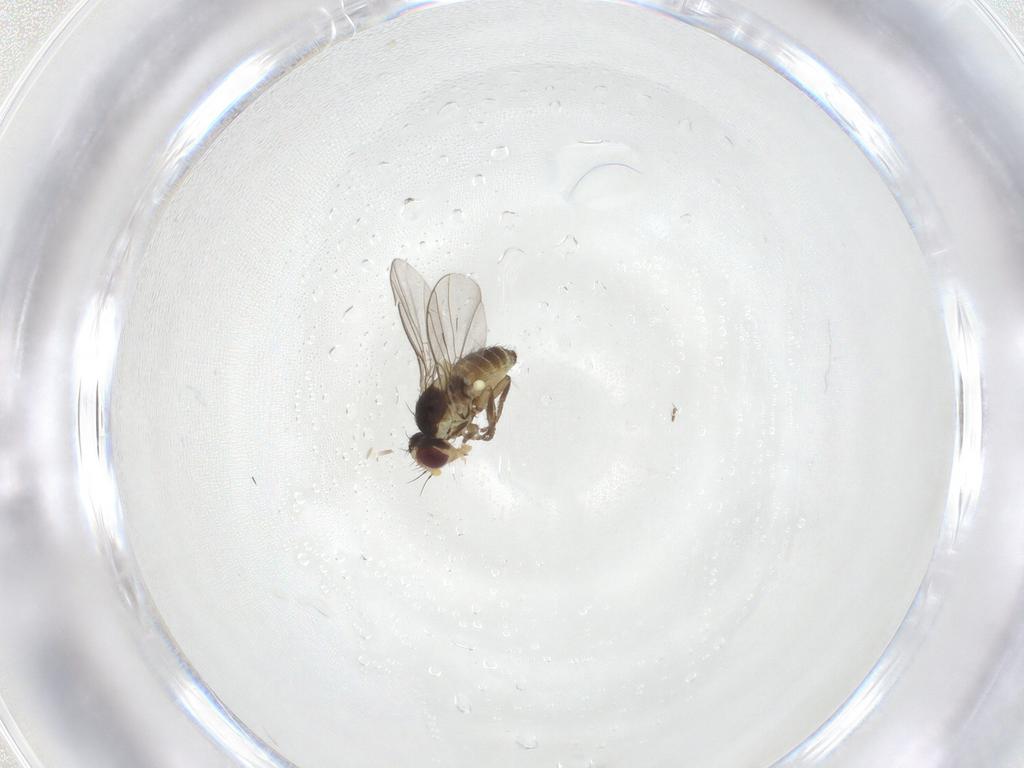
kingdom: Animalia
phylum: Arthropoda
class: Insecta
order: Diptera
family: Agromyzidae
